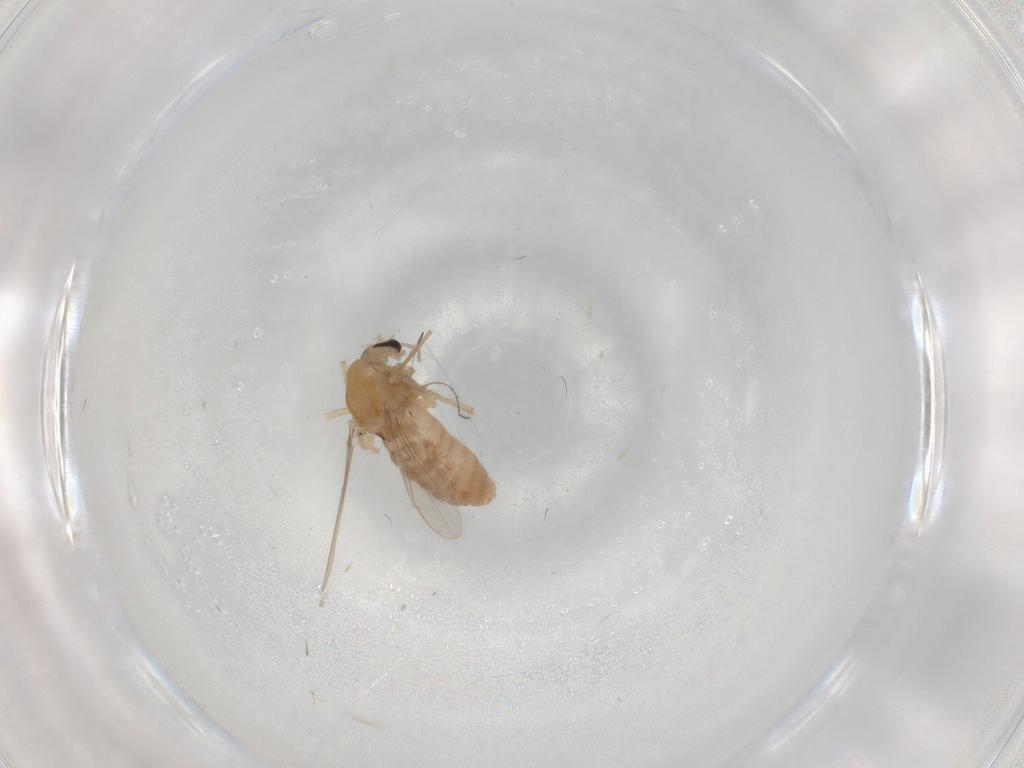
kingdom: Animalia
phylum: Arthropoda
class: Insecta
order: Diptera
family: Chironomidae
